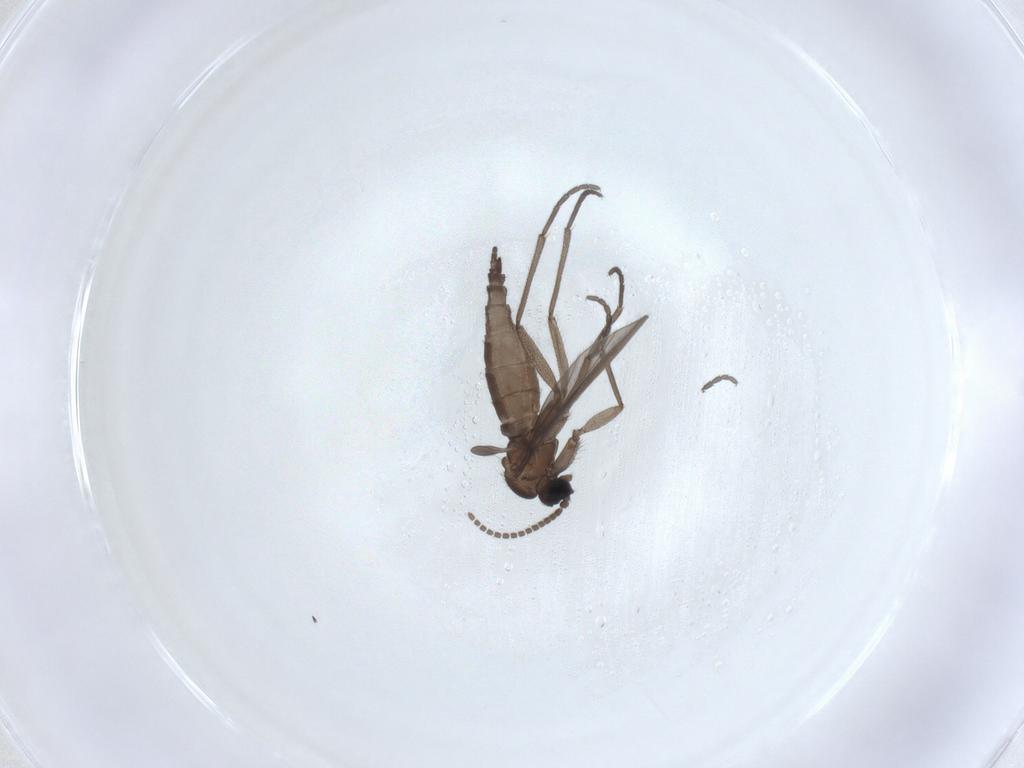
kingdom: Animalia
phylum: Arthropoda
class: Insecta
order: Diptera
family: Sciaridae
